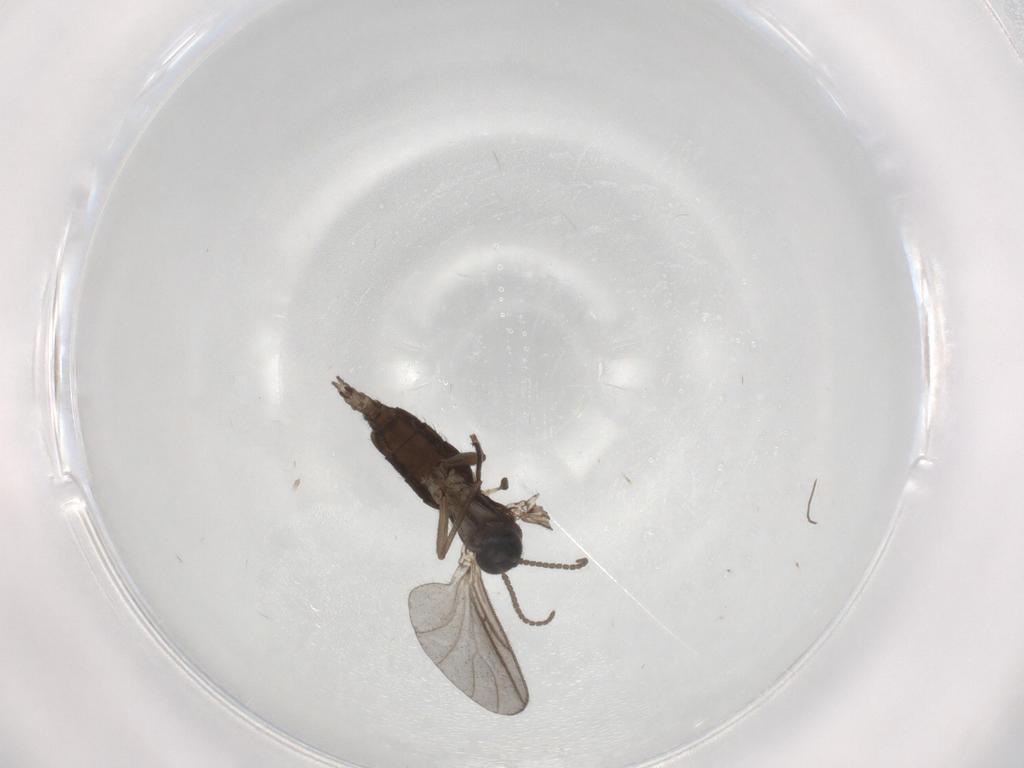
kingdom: Animalia
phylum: Arthropoda
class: Insecta
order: Diptera
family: Sciaridae
